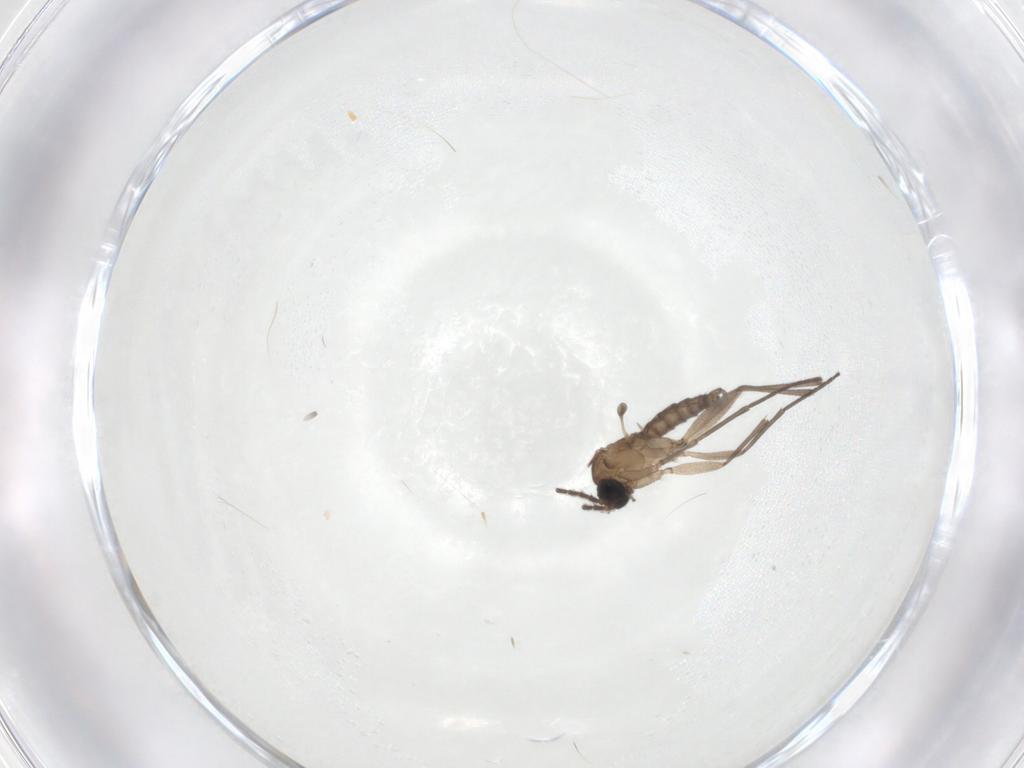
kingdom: Animalia
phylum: Arthropoda
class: Insecta
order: Diptera
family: Sciaridae
